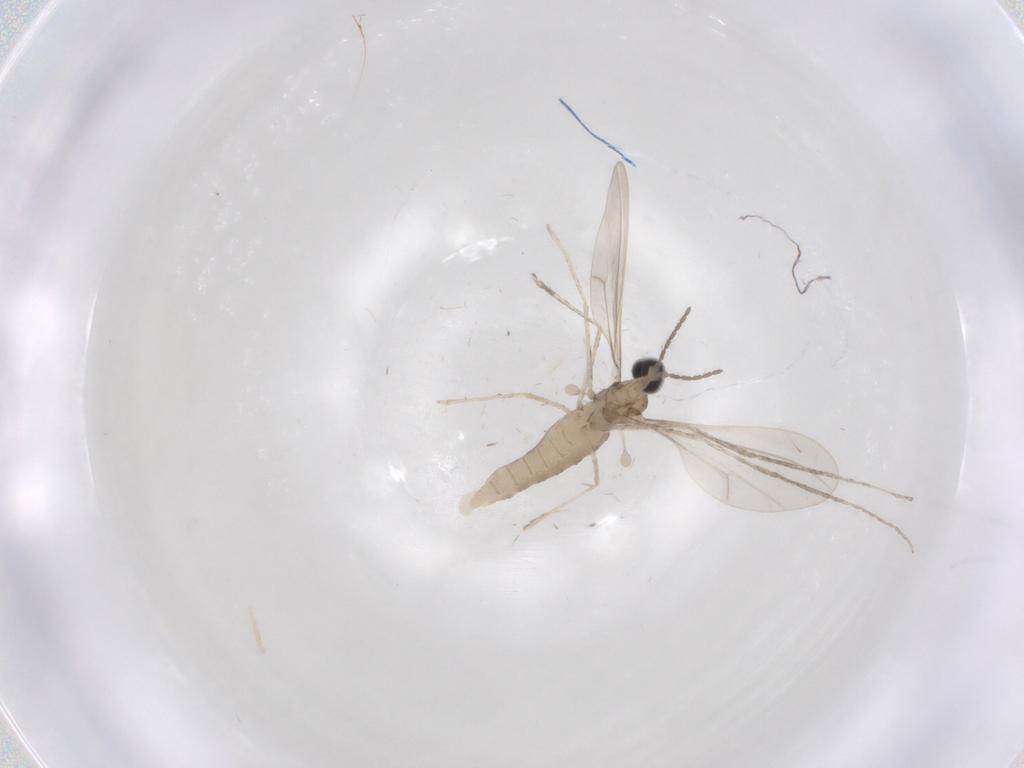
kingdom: Animalia
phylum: Arthropoda
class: Insecta
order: Diptera
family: Cecidomyiidae
